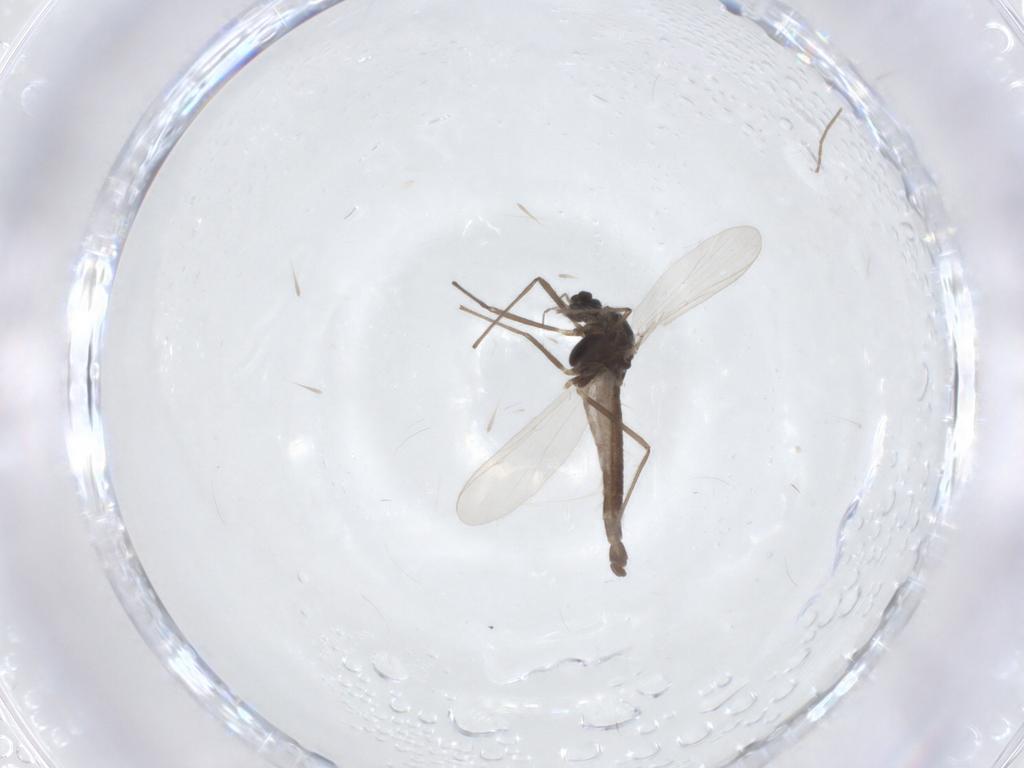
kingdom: Animalia
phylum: Arthropoda
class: Insecta
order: Diptera
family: Chironomidae
